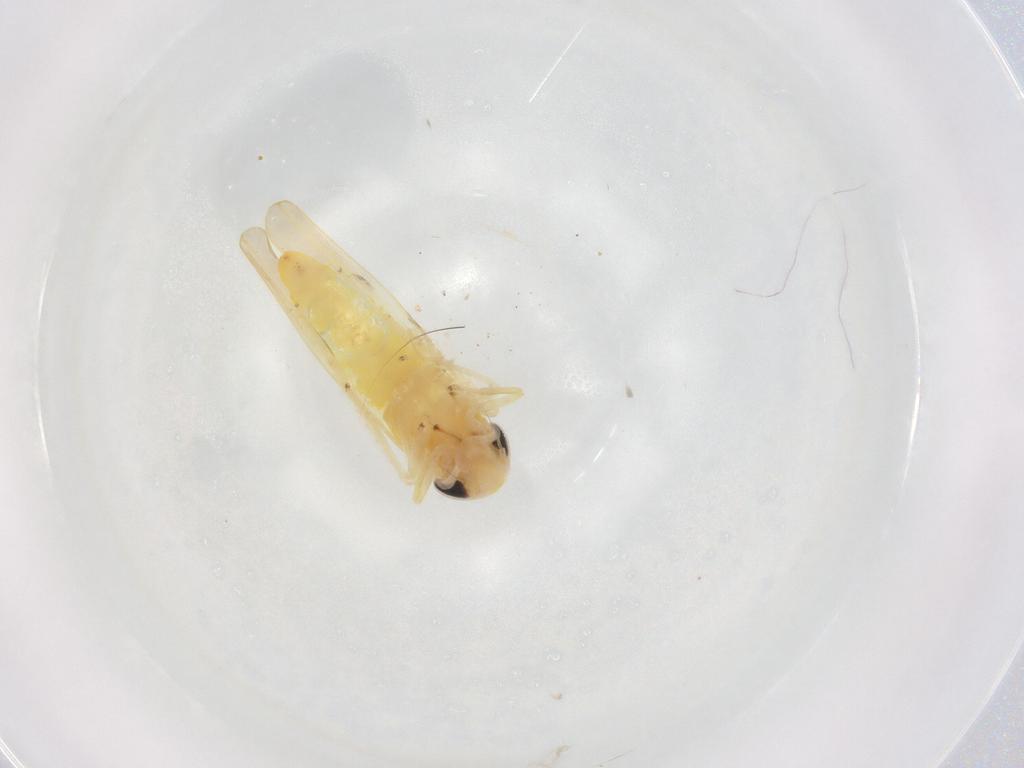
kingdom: Animalia
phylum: Arthropoda
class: Insecta
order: Hemiptera
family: Cicadellidae
